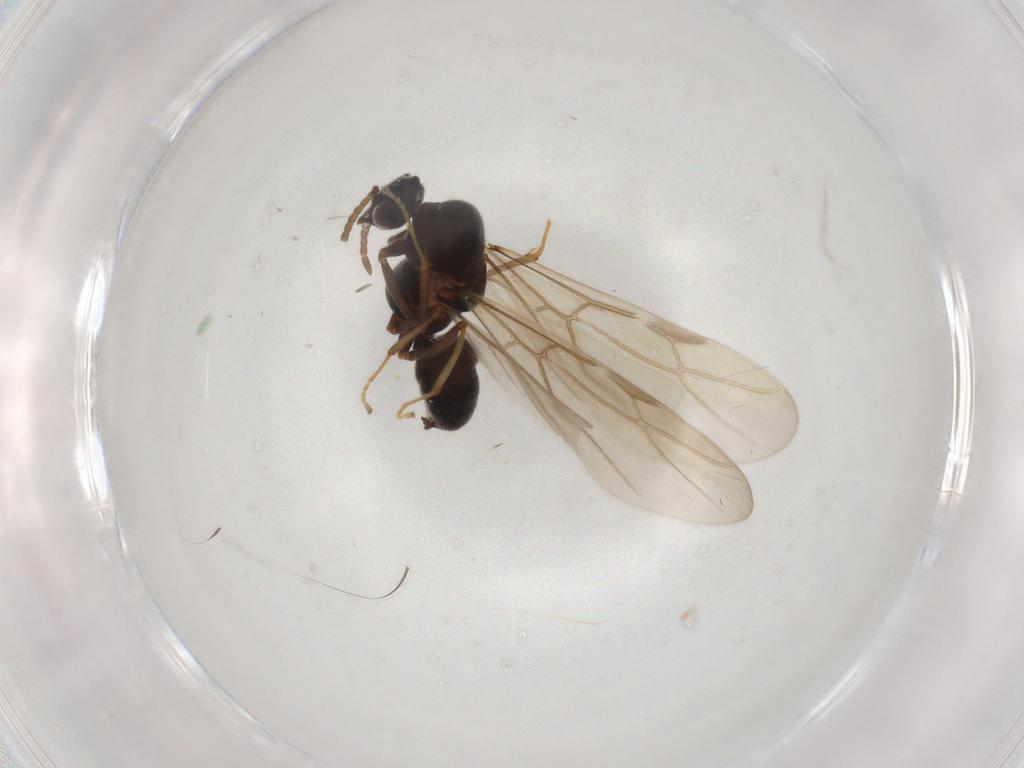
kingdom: Animalia
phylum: Arthropoda
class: Insecta
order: Hymenoptera
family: Formicidae
